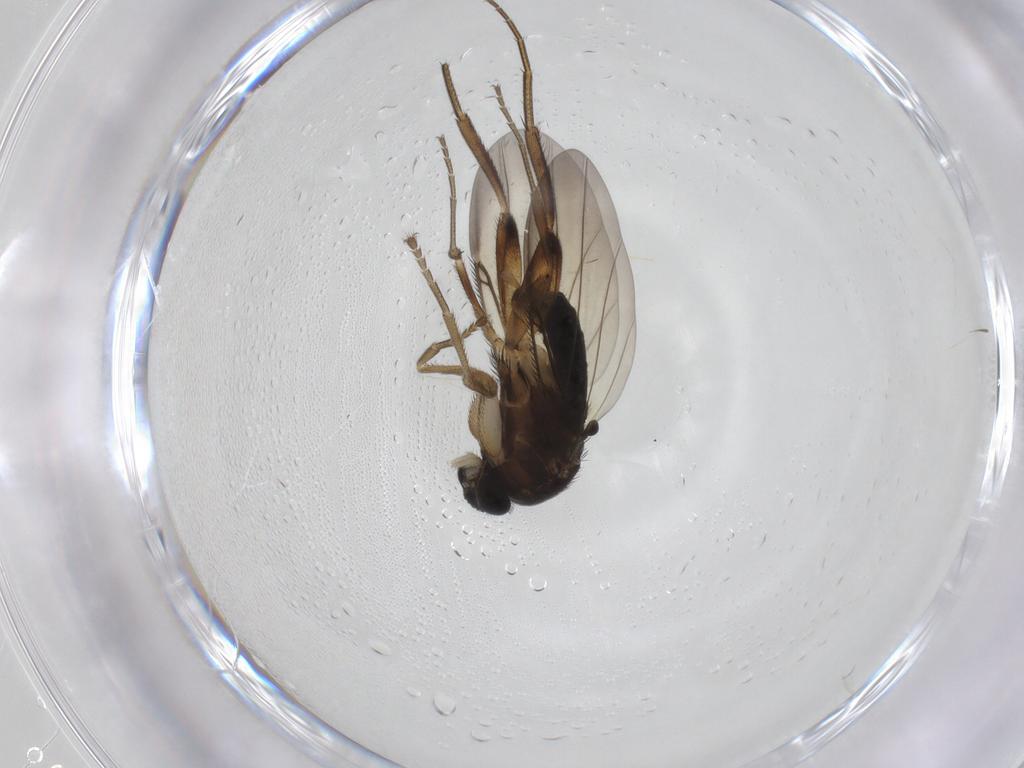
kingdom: Animalia
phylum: Arthropoda
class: Insecta
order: Diptera
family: Phoridae
